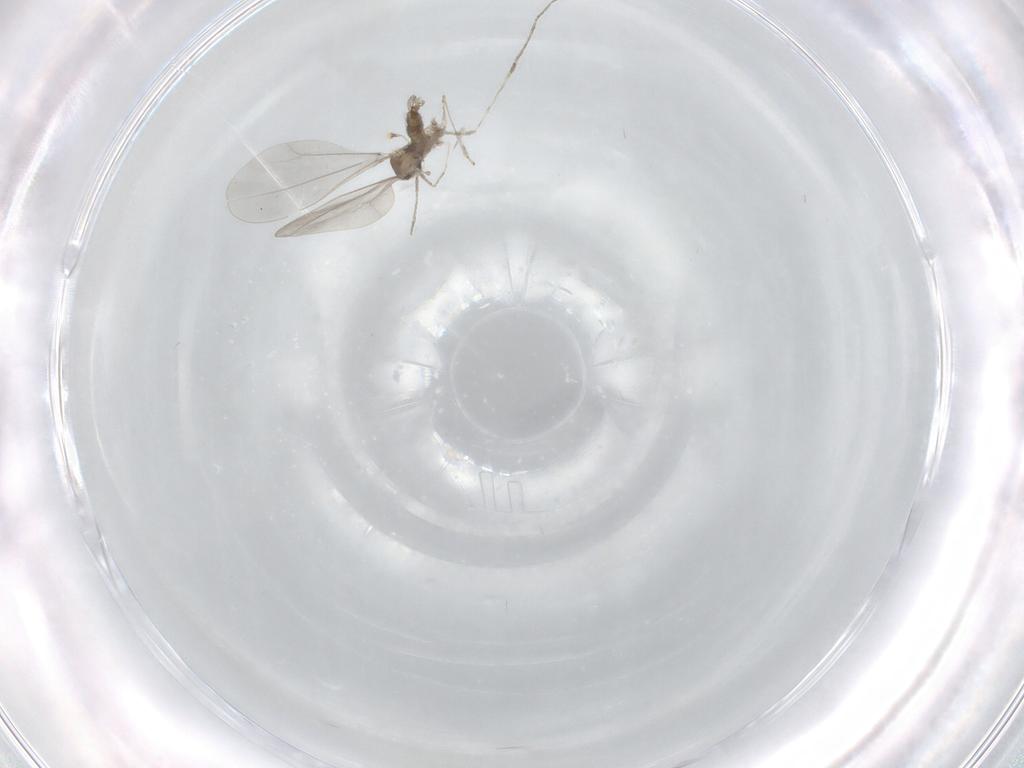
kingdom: Animalia
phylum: Arthropoda
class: Insecta
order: Diptera
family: Cecidomyiidae
